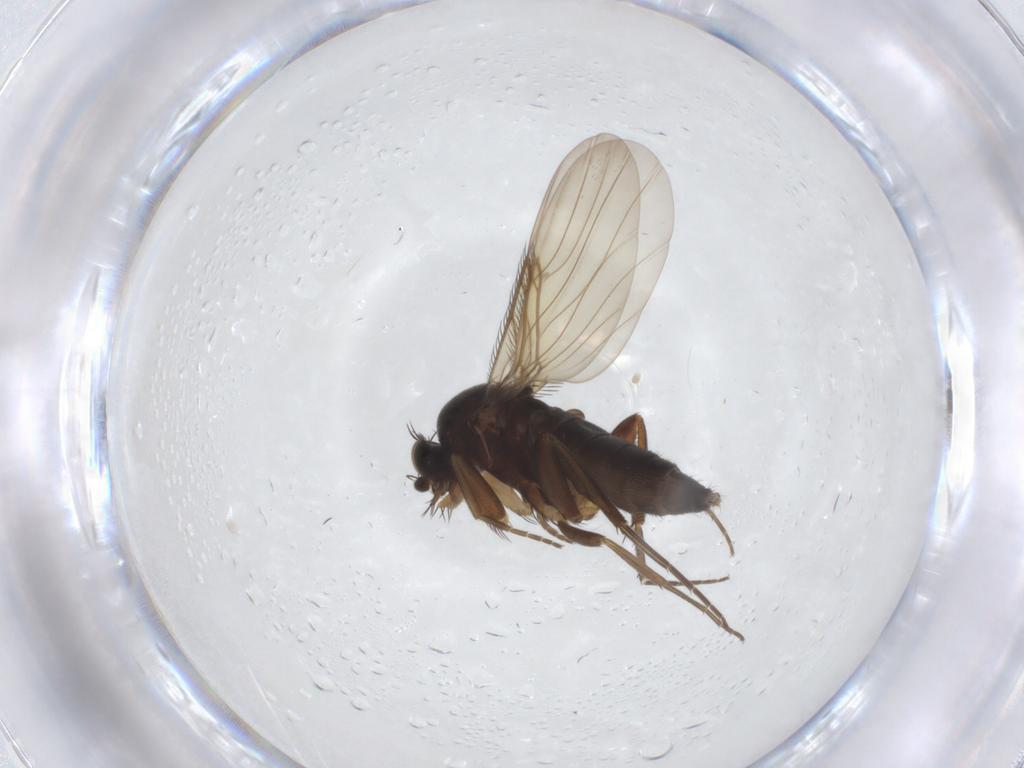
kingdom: Animalia
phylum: Arthropoda
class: Insecta
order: Diptera
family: Phoridae
